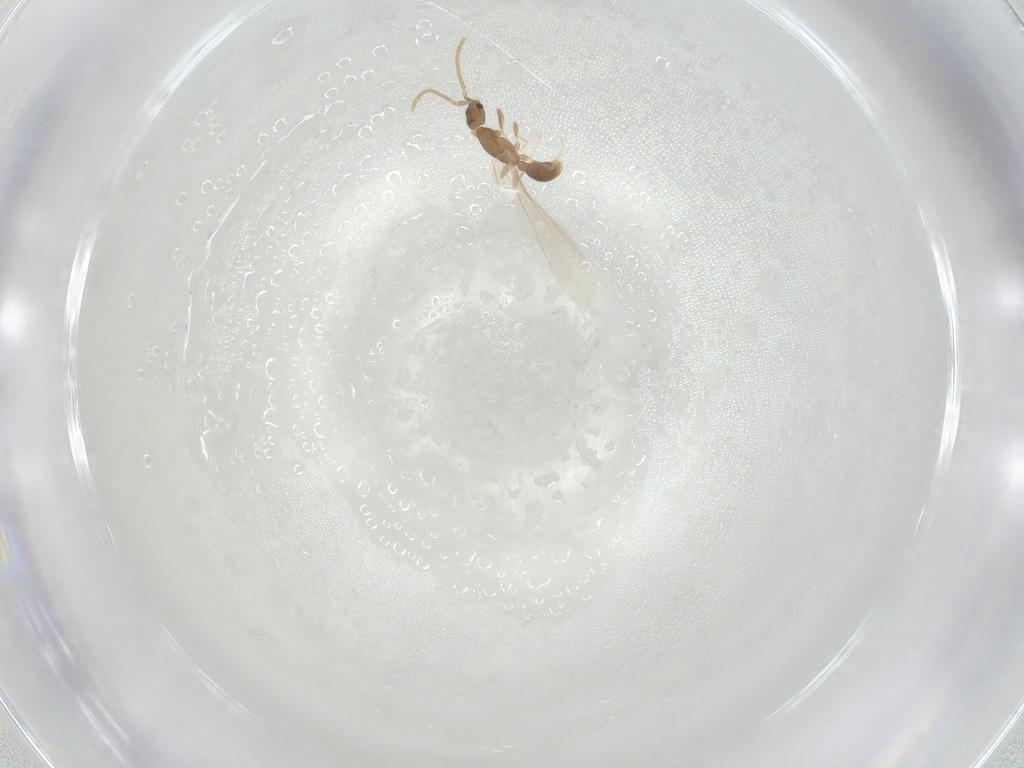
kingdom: Animalia
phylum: Arthropoda
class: Insecta
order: Hymenoptera
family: Formicidae
